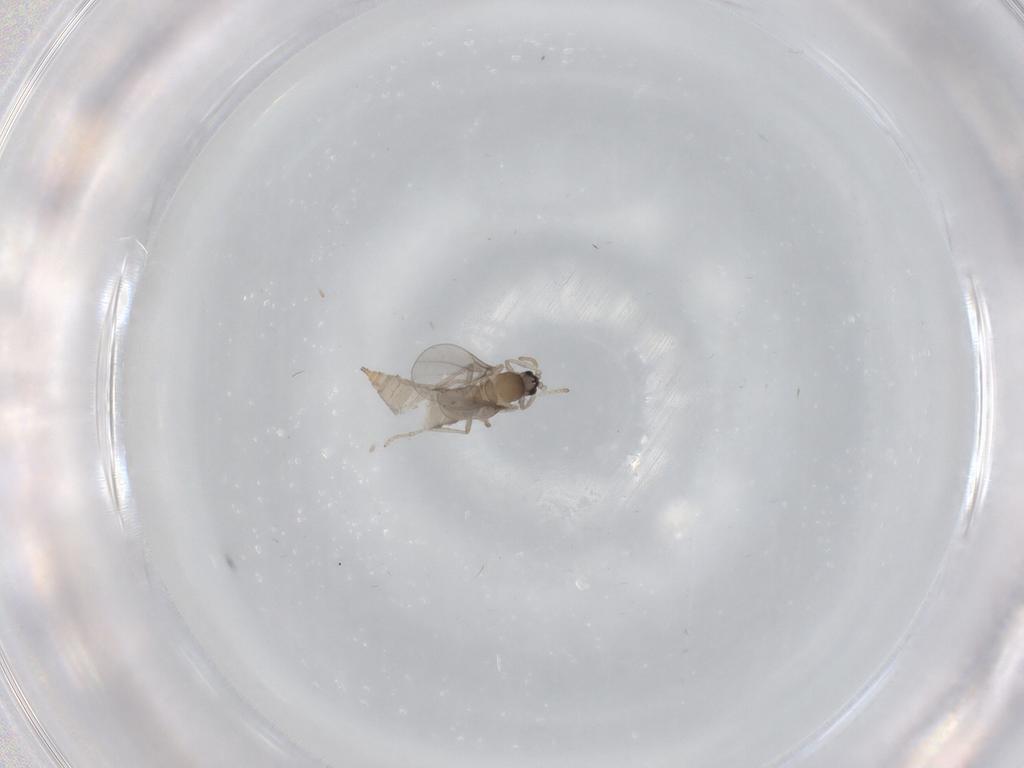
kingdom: Animalia
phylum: Arthropoda
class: Insecta
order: Diptera
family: Cecidomyiidae
